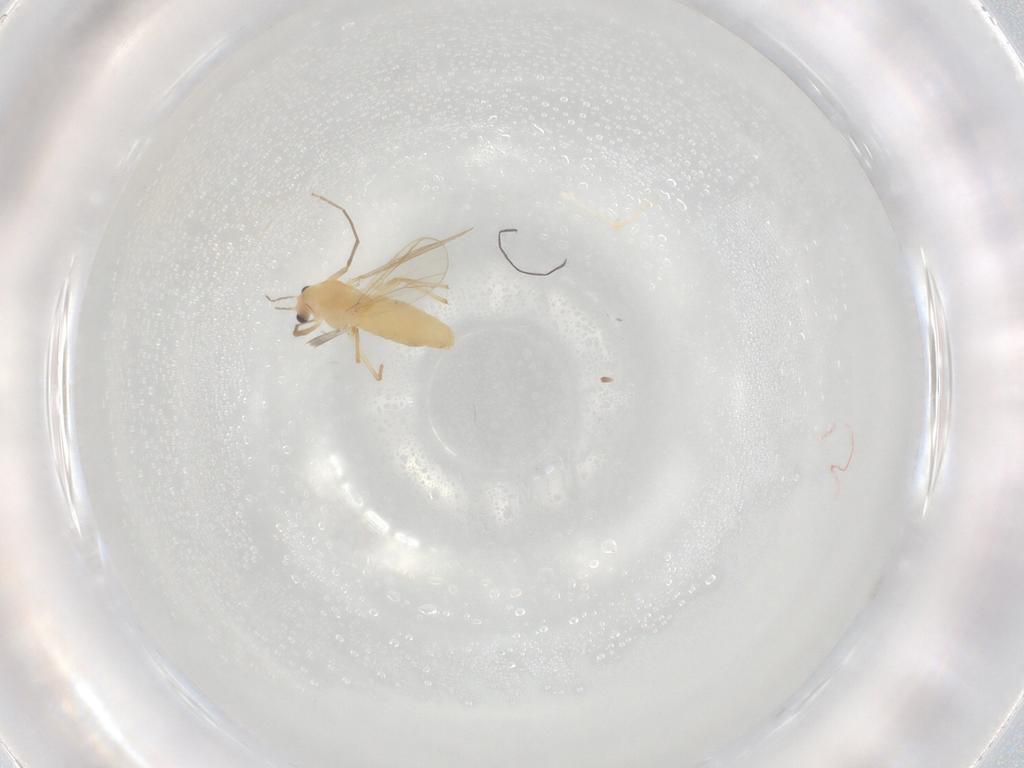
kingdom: Animalia
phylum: Arthropoda
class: Insecta
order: Diptera
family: Chironomidae
